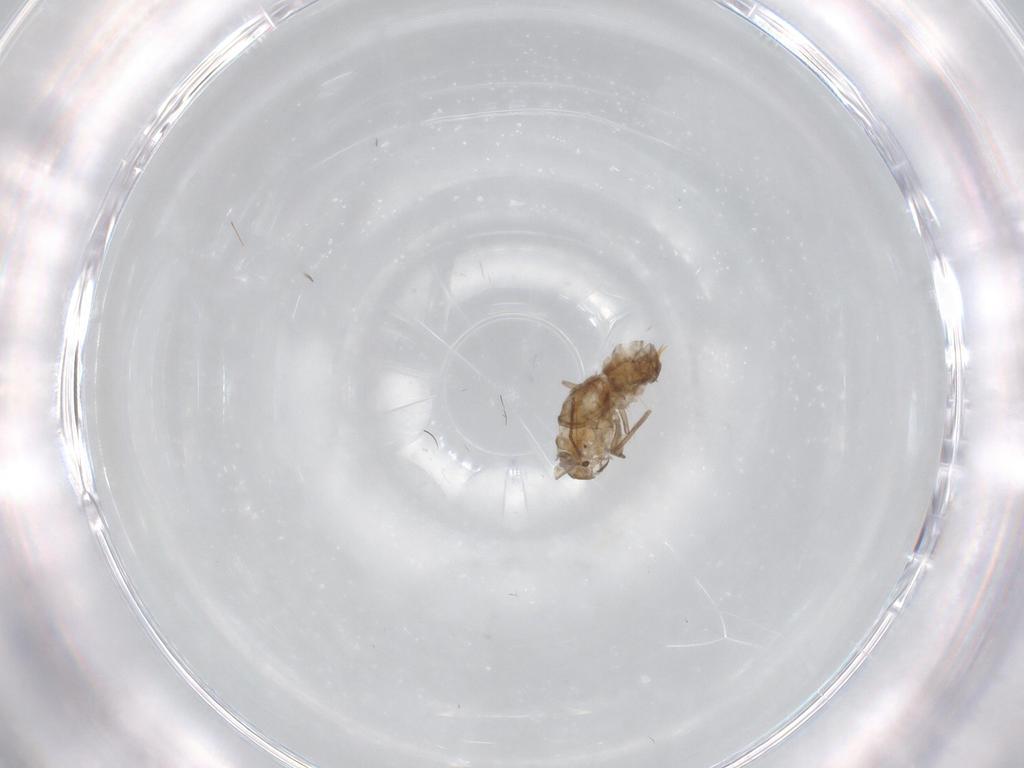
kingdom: Animalia
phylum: Arthropoda
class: Insecta
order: Diptera
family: Psychodidae
